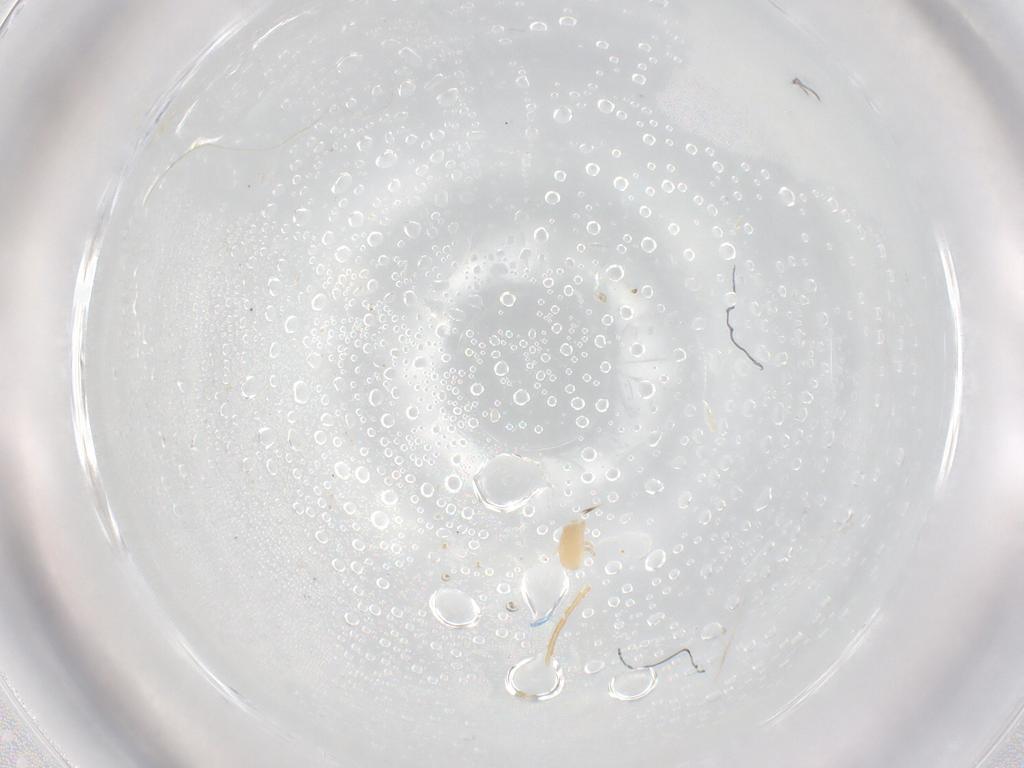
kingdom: Animalia
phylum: Arthropoda
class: Arachnida
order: Mesostigmata
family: Ascidae
